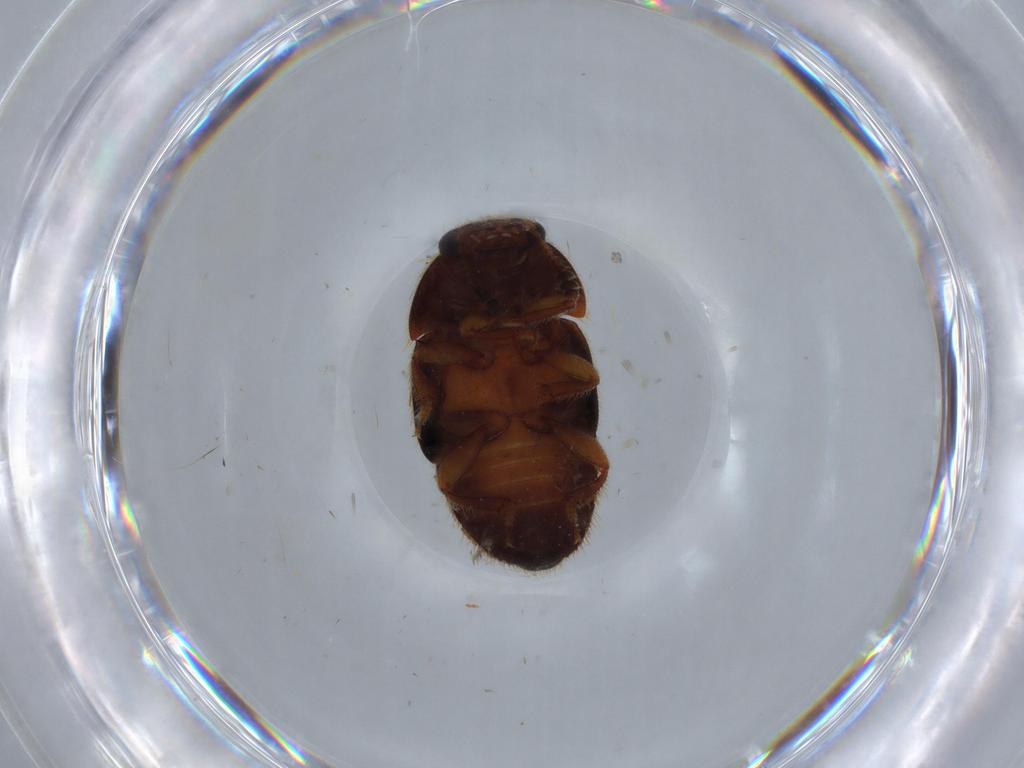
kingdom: Animalia
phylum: Arthropoda
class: Insecta
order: Coleoptera
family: Nitidulidae
